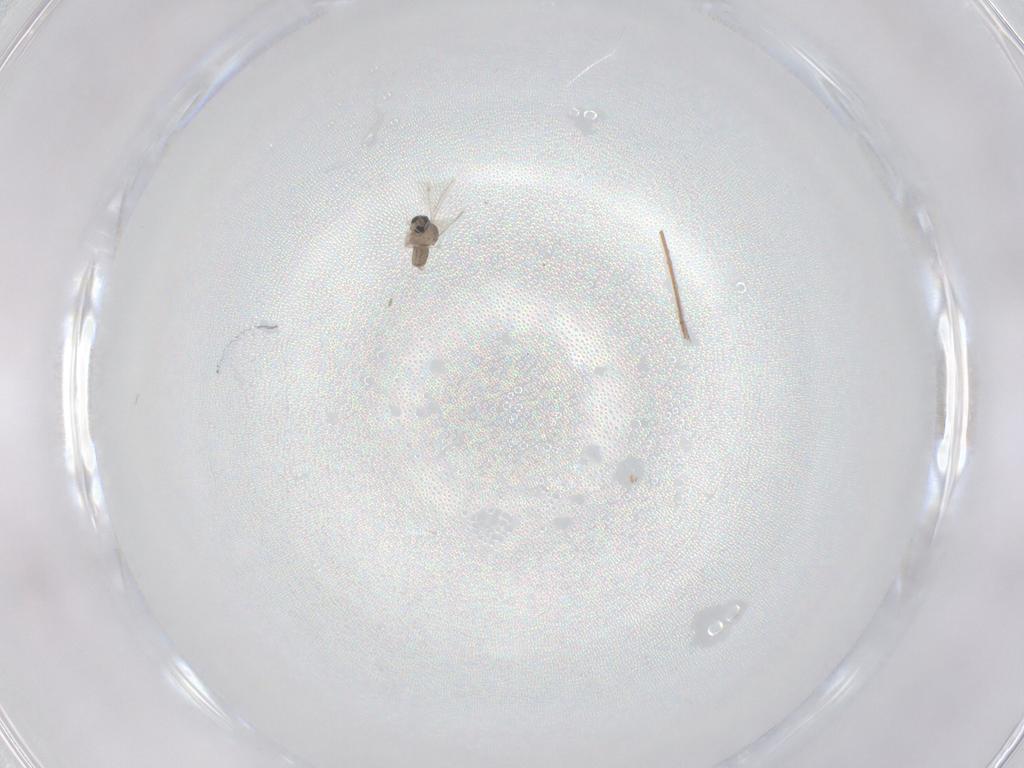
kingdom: Animalia
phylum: Arthropoda
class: Insecta
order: Diptera
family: Cecidomyiidae
